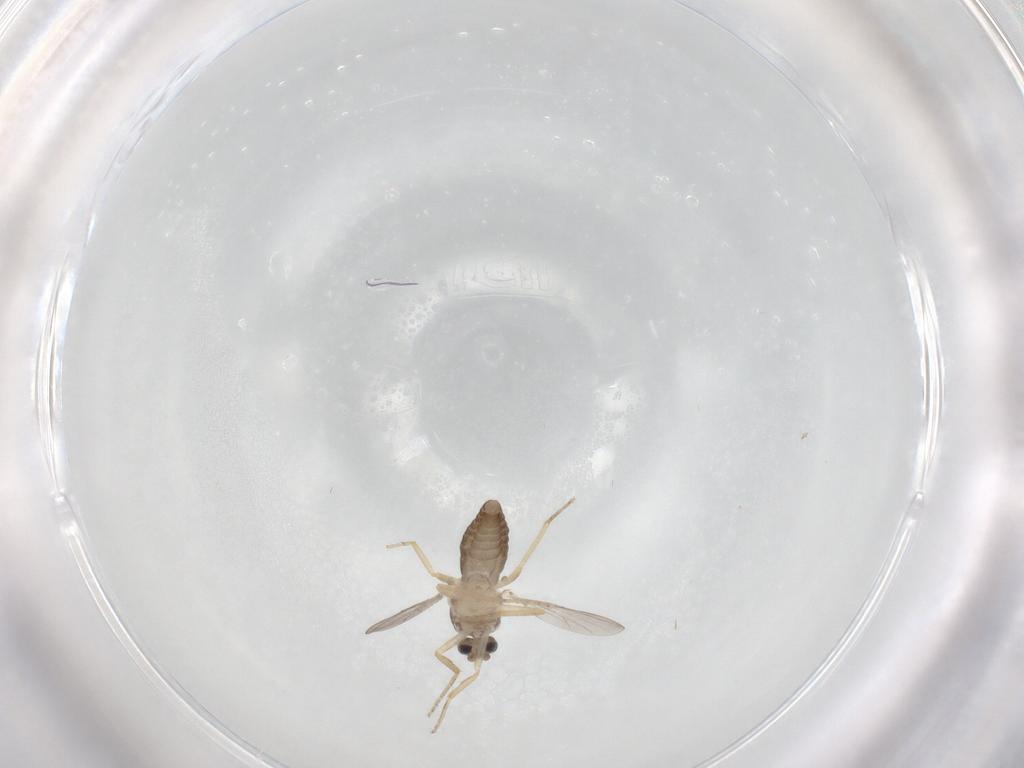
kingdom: Animalia
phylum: Arthropoda
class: Insecta
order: Diptera
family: Ceratopogonidae
